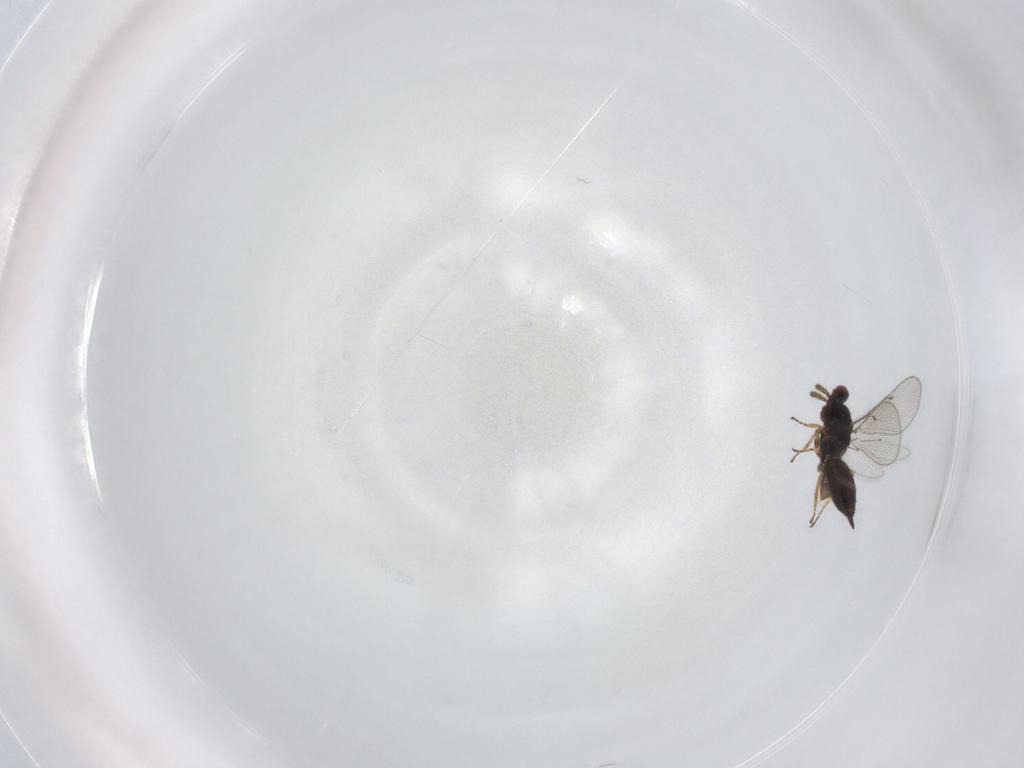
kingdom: Animalia
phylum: Arthropoda
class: Insecta
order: Hymenoptera
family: Eulophidae
